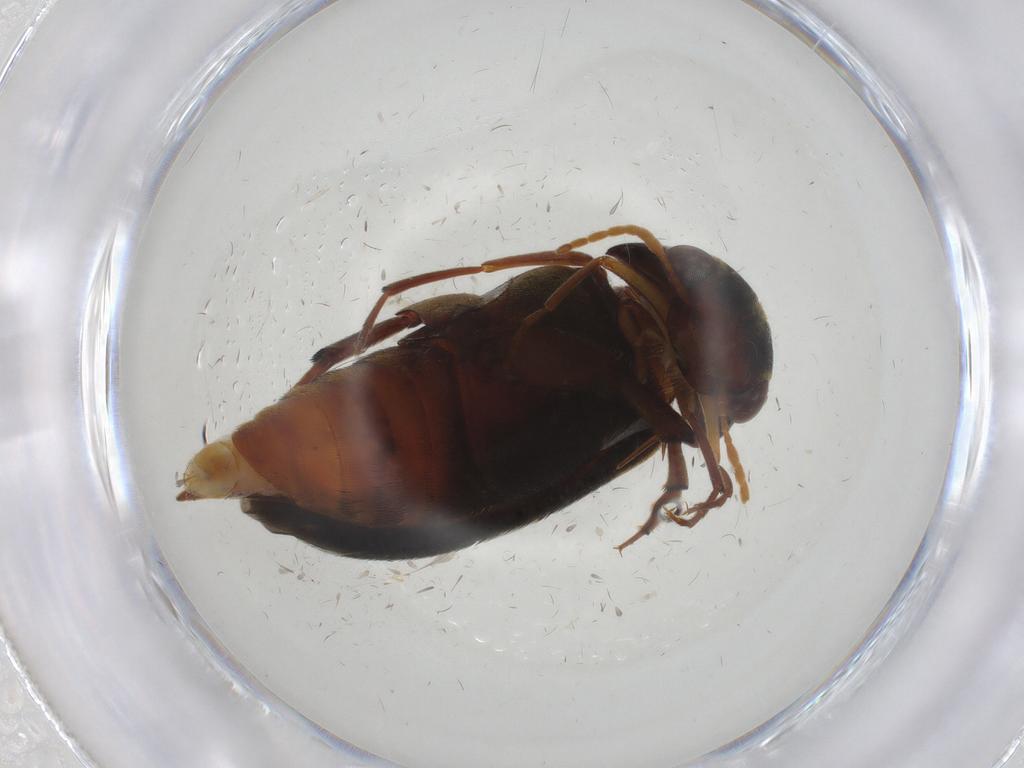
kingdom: Animalia
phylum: Arthropoda
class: Insecta
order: Coleoptera
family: Mordellidae
